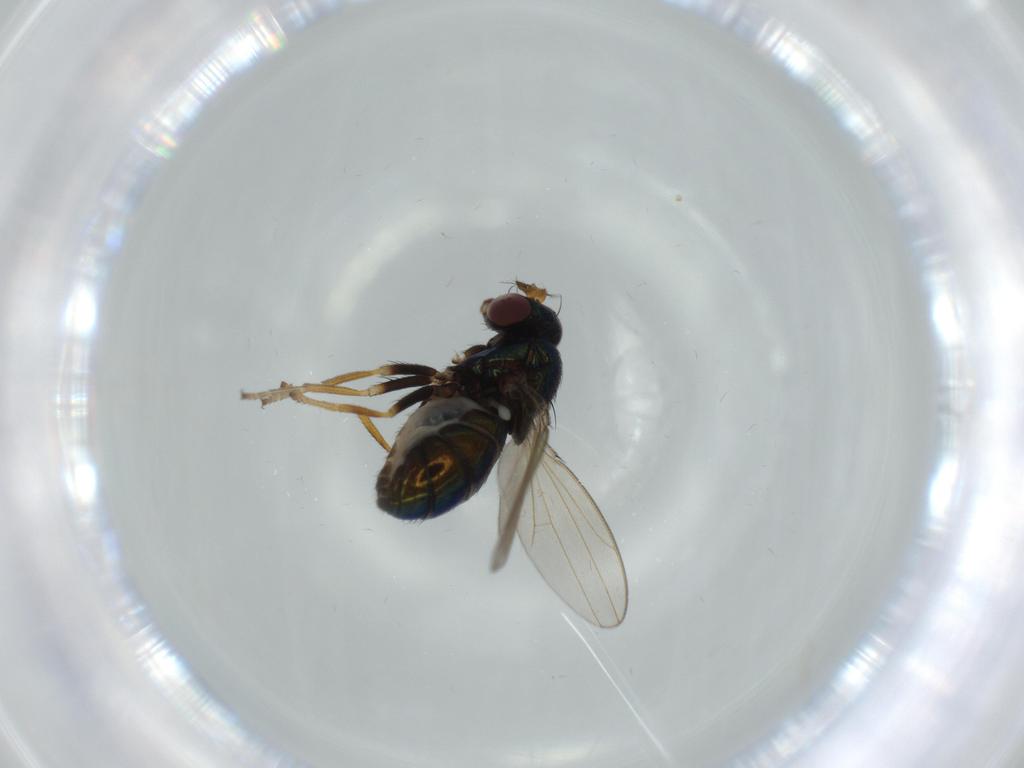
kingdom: Animalia
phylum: Arthropoda
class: Insecta
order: Diptera
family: Ephydridae
